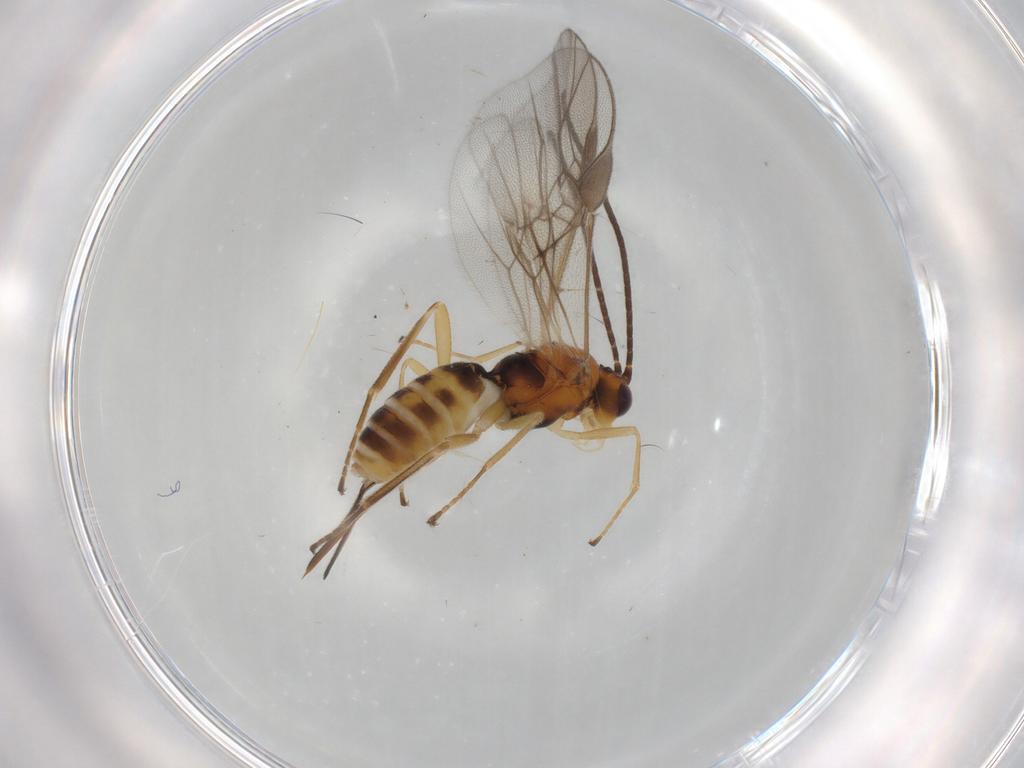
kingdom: Animalia
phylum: Arthropoda
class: Insecta
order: Hymenoptera
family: Braconidae
